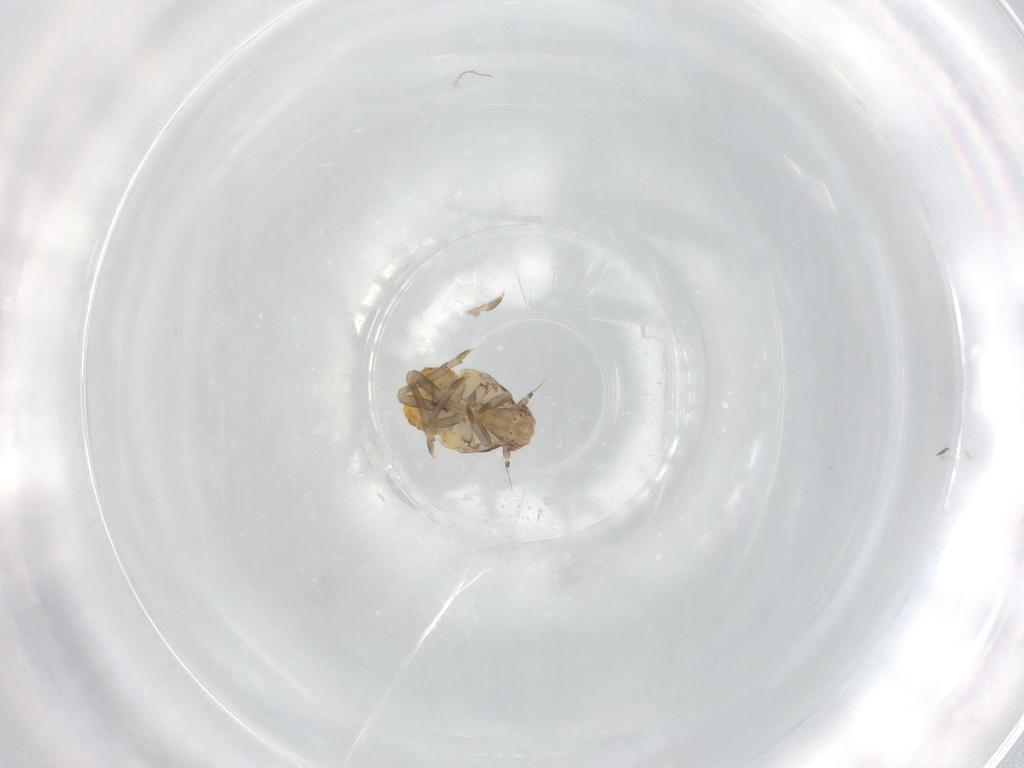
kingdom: Animalia
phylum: Arthropoda
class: Insecta
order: Hemiptera
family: Fulgoroidea_incertae_sedis
